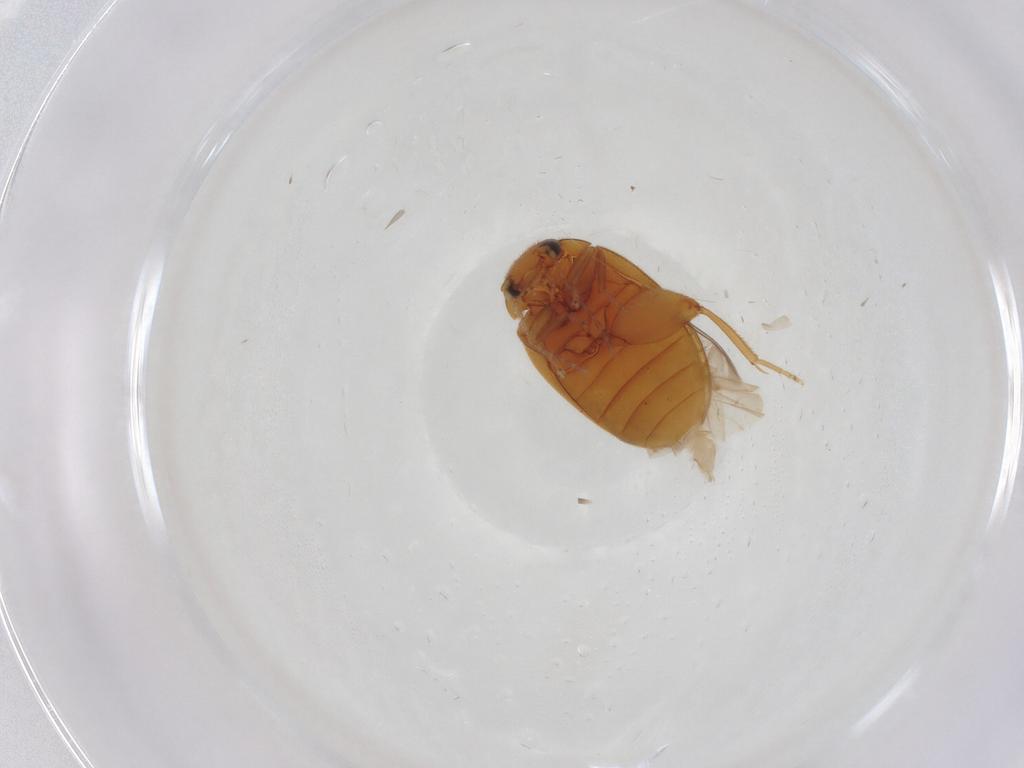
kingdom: Animalia
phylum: Arthropoda
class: Insecta
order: Coleoptera
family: Scirtidae
